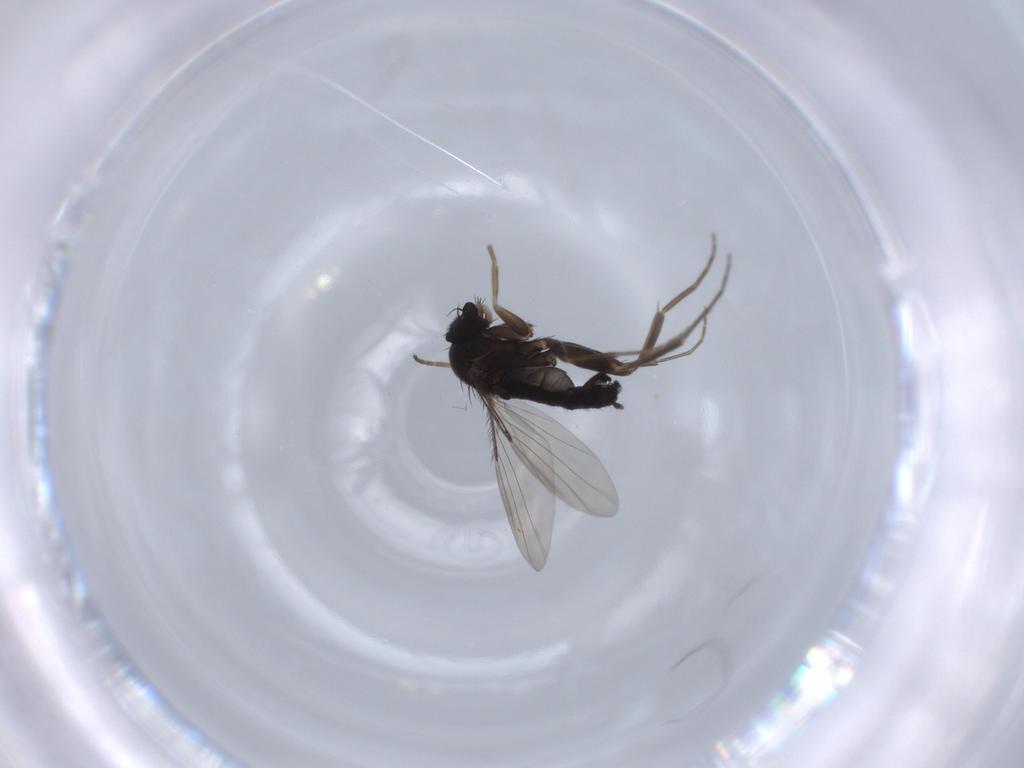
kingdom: Animalia
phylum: Arthropoda
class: Insecta
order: Diptera
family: Phoridae
